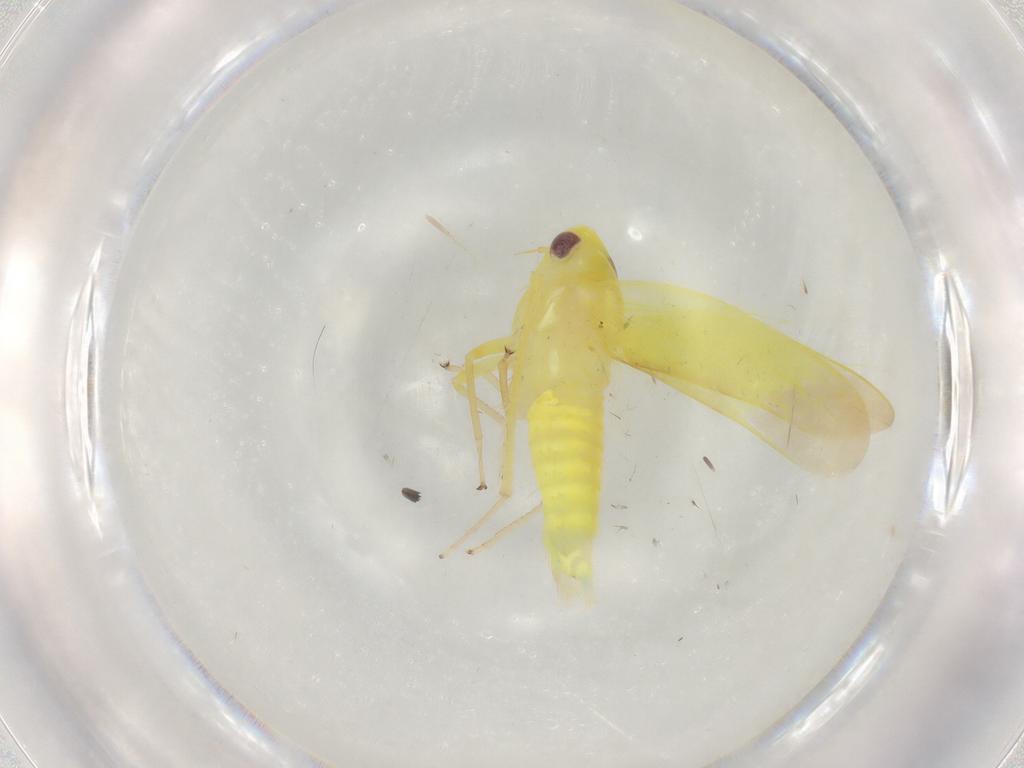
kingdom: Animalia
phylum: Arthropoda
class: Insecta
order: Hemiptera
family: Cicadellidae
